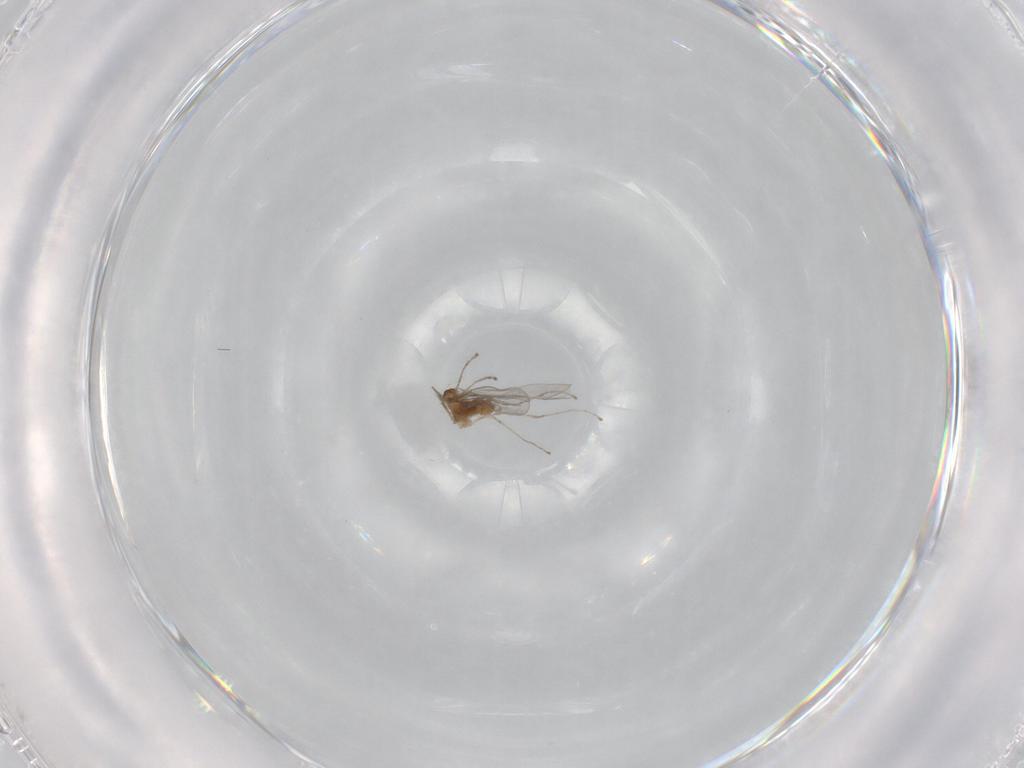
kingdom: Animalia
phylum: Arthropoda
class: Insecta
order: Diptera
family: Cecidomyiidae
